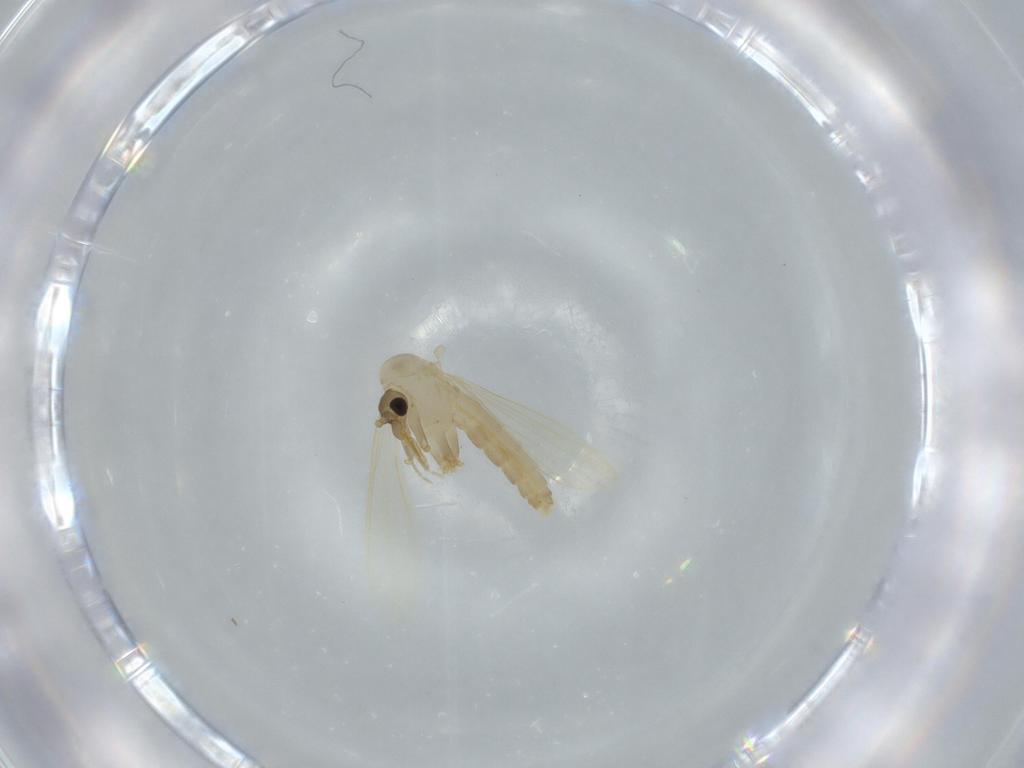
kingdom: Animalia
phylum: Arthropoda
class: Insecta
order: Diptera
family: Psychodidae
